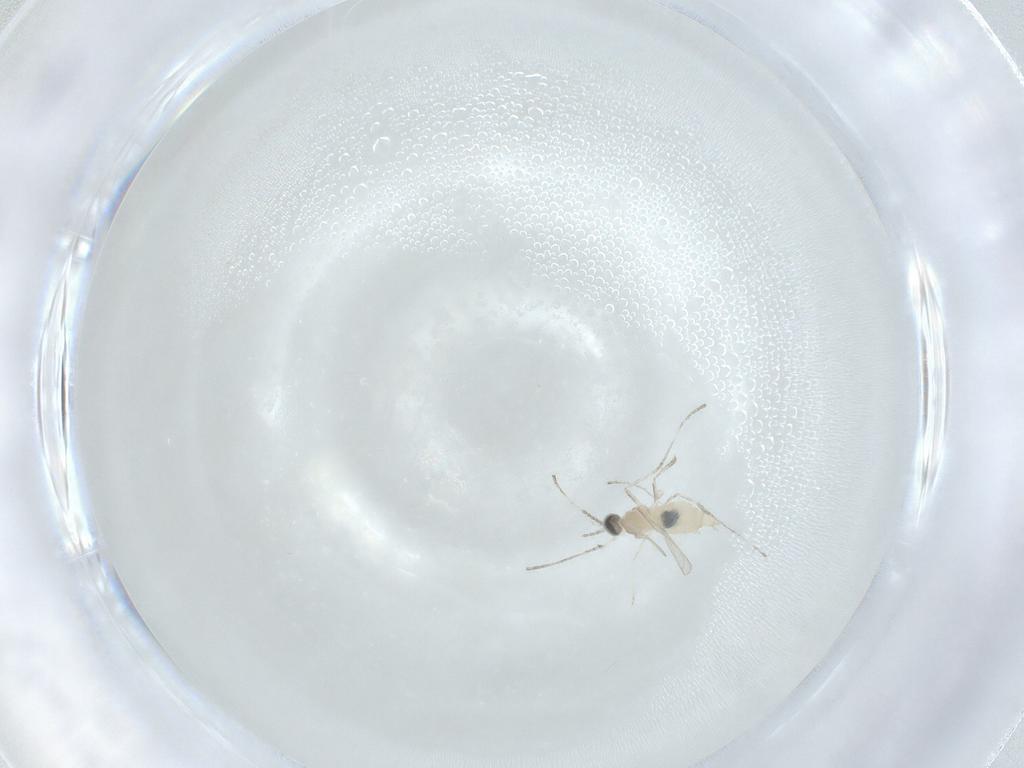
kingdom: Animalia
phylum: Arthropoda
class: Insecta
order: Diptera
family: Cecidomyiidae
